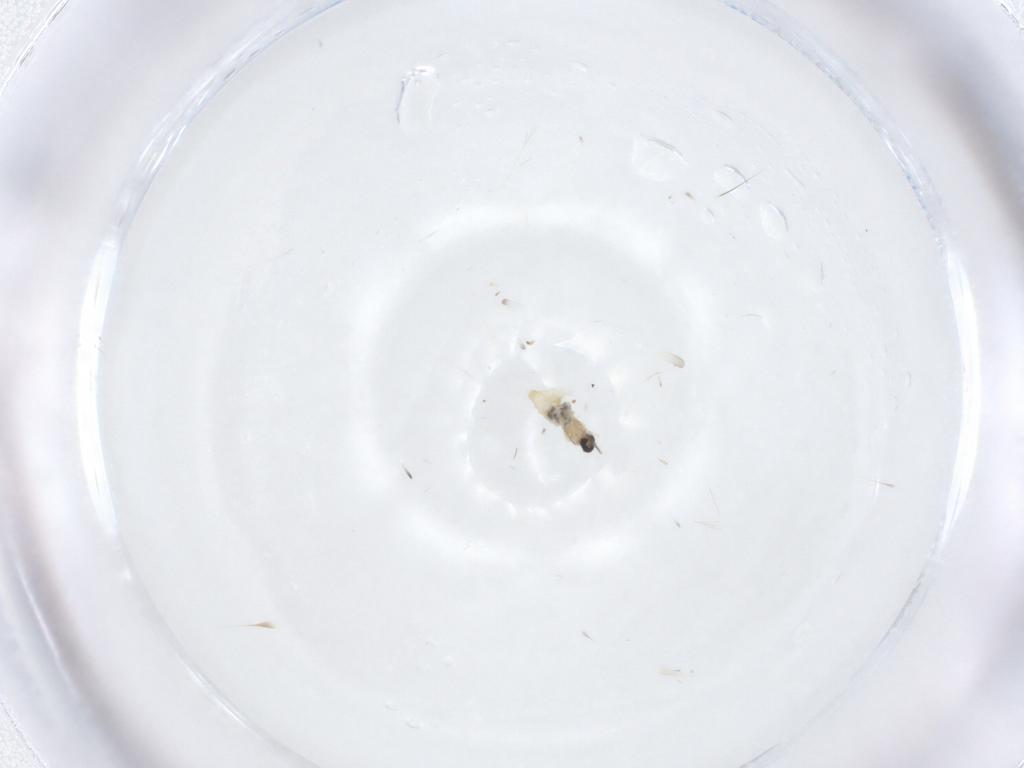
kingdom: Animalia
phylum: Arthropoda
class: Insecta
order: Diptera
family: Cecidomyiidae
